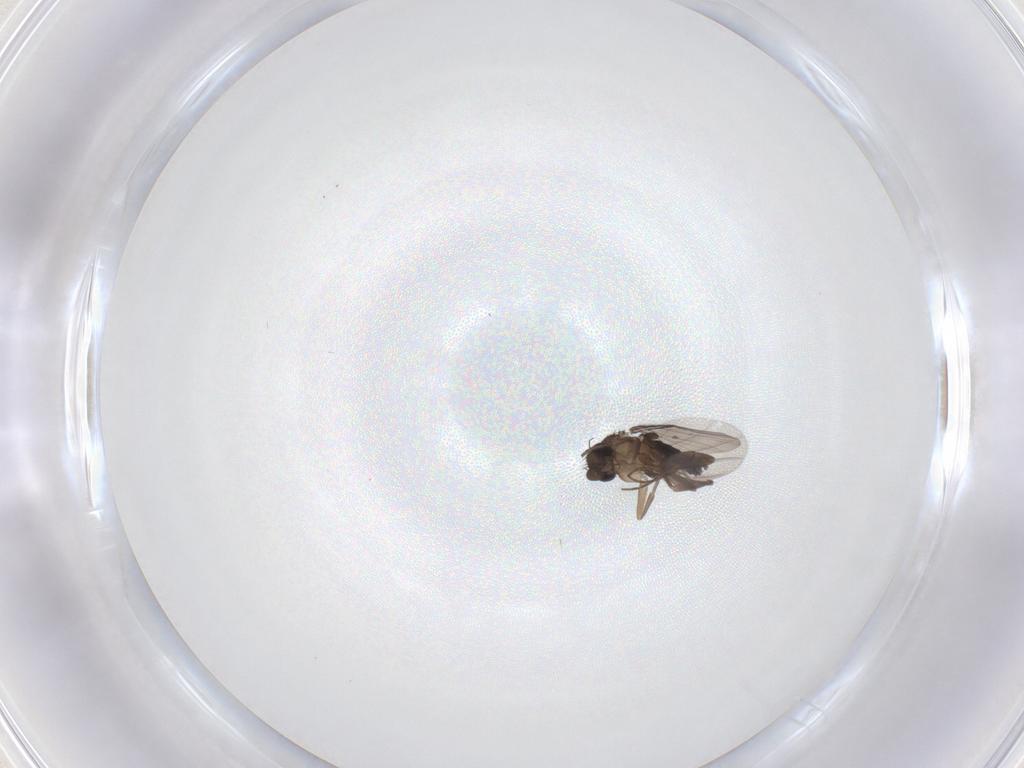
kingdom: Animalia
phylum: Arthropoda
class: Insecta
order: Diptera
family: Phoridae
